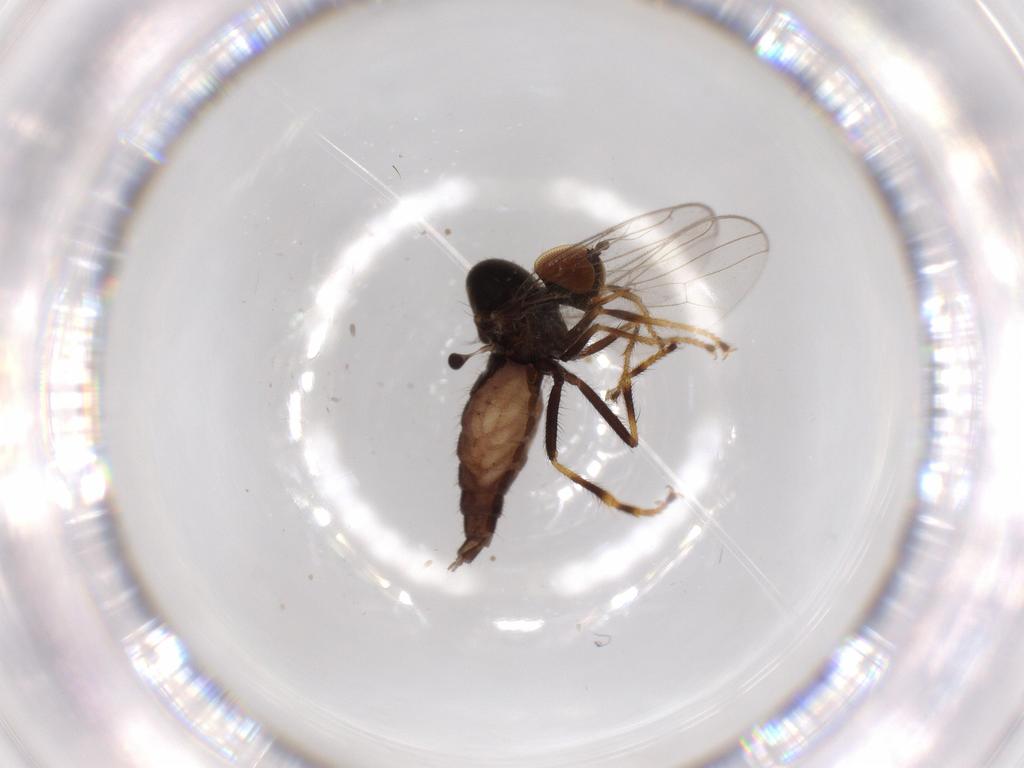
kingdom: Animalia
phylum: Arthropoda
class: Insecta
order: Diptera
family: Hybotidae
